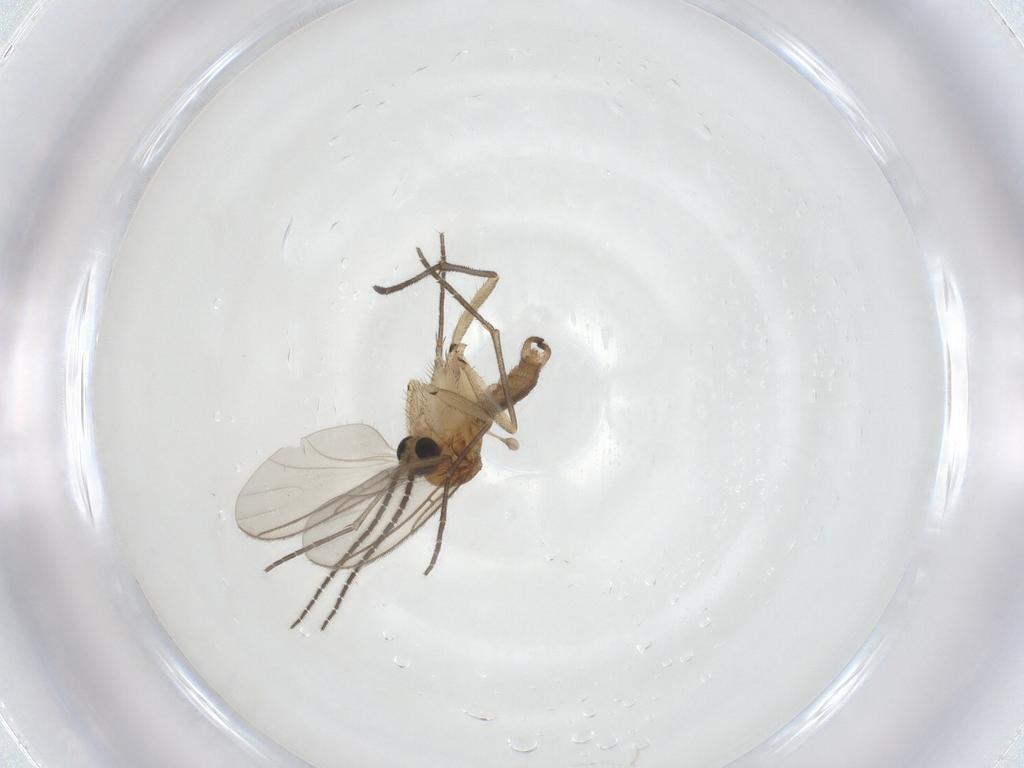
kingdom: Animalia
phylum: Arthropoda
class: Insecta
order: Diptera
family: Sciaridae
